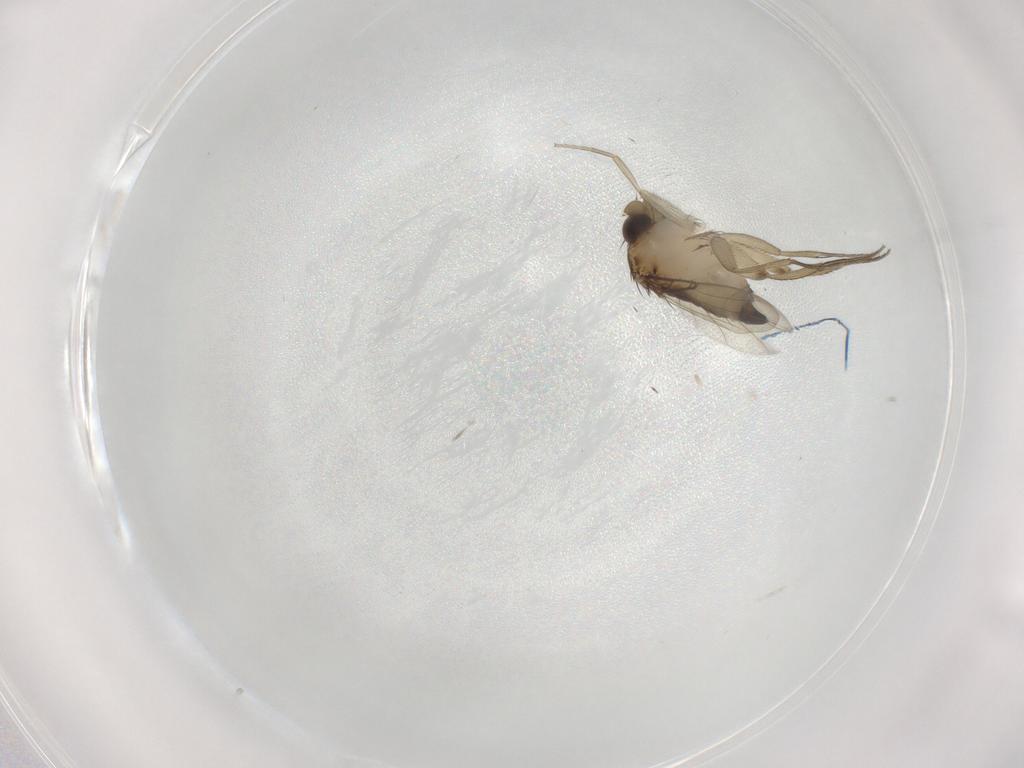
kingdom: Animalia
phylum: Arthropoda
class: Insecta
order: Diptera
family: Phoridae
